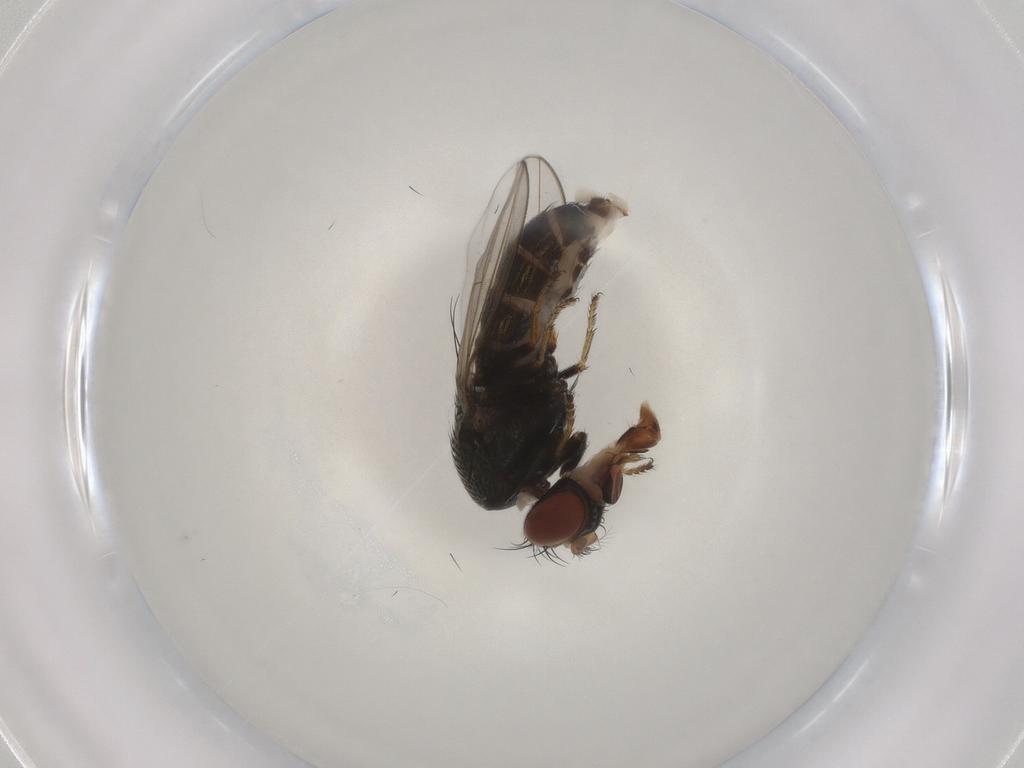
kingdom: Animalia
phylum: Arthropoda
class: Insecta
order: Diptera
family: Ephydridae
